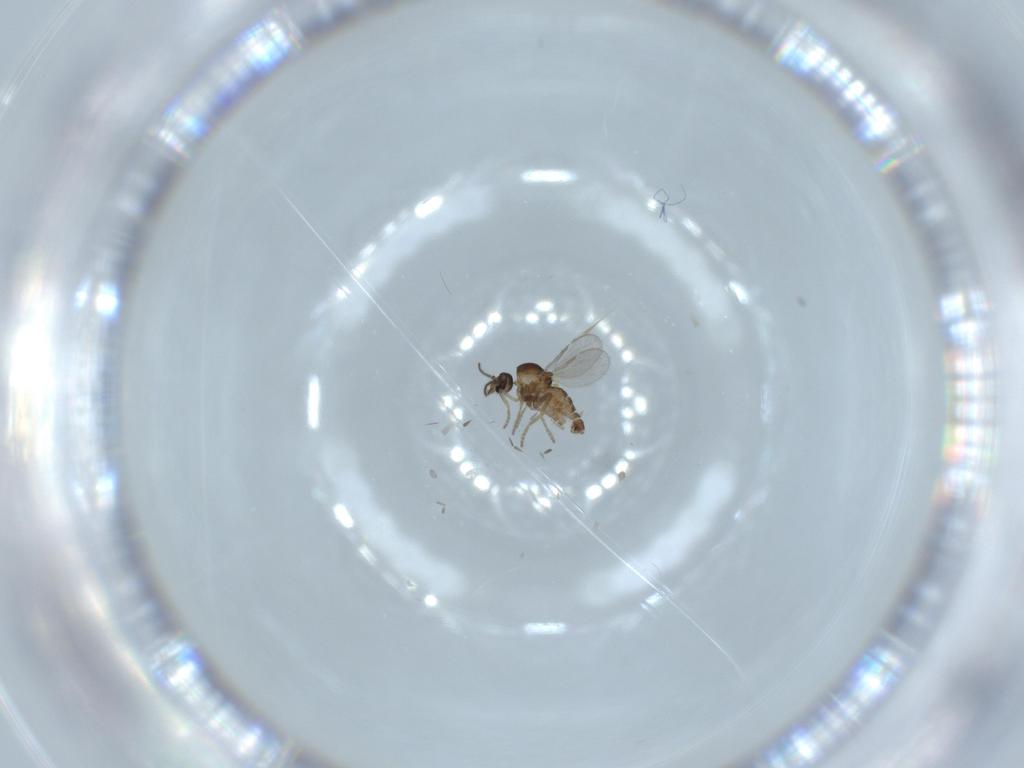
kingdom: Animalia
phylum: Arthropoda
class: Insecta
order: Diptera
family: Ceratopogonidae
